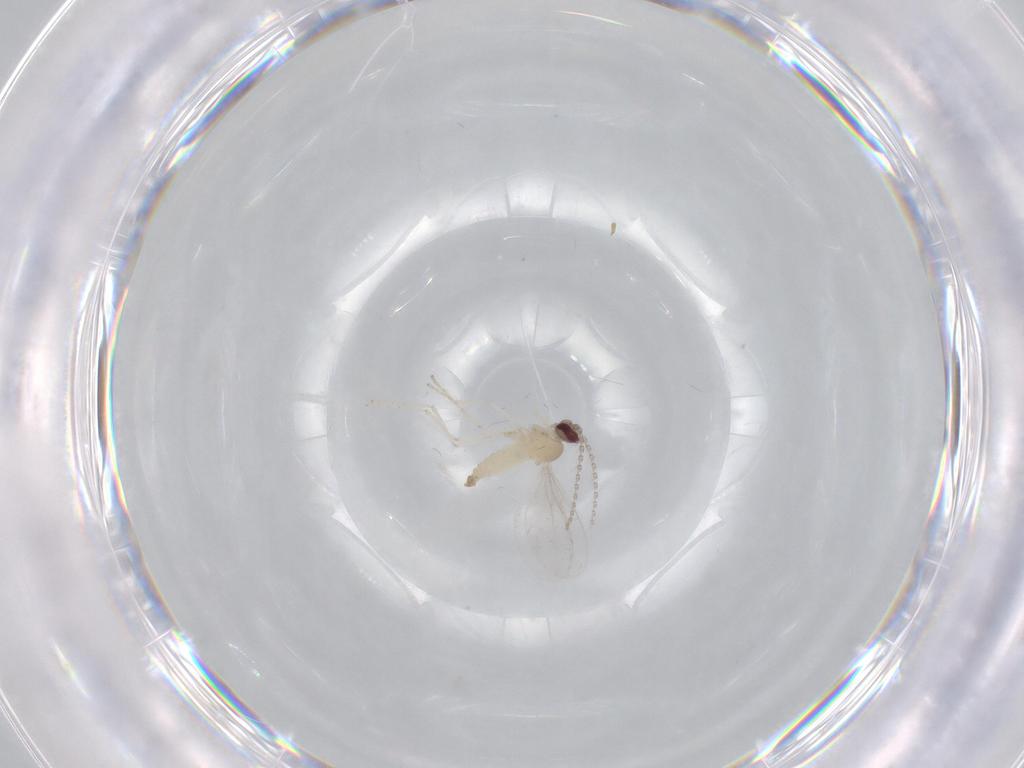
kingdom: Animalia
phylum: Arthropoda
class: Insecta
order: Diptera
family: Cecidomyiidae
